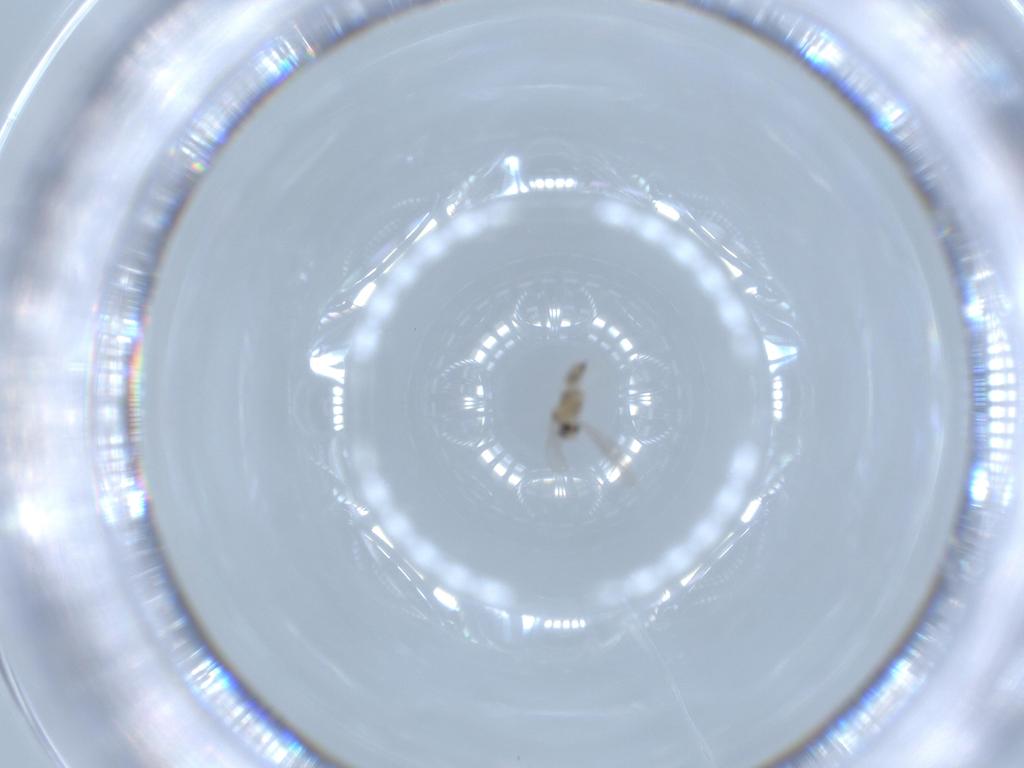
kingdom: Animalia
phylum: Arthropoda
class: Insecta
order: Diptera
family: Cecidomyiidae
